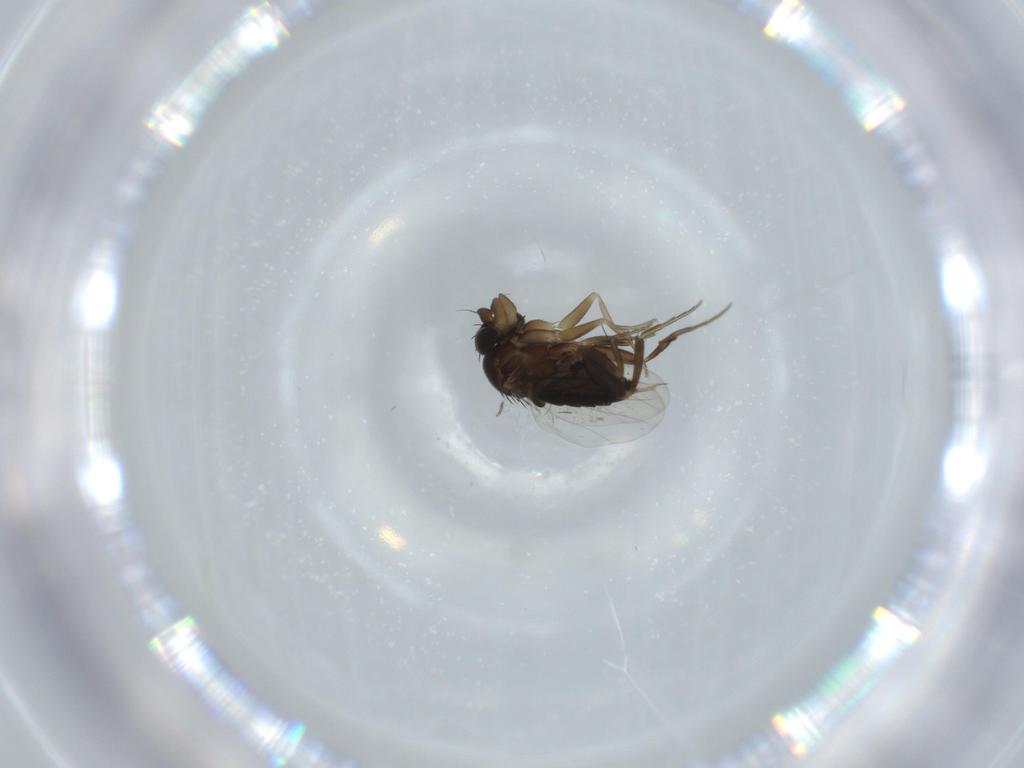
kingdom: Animalia
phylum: Arthropoda
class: Insecta
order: Diptera
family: Phoridae
